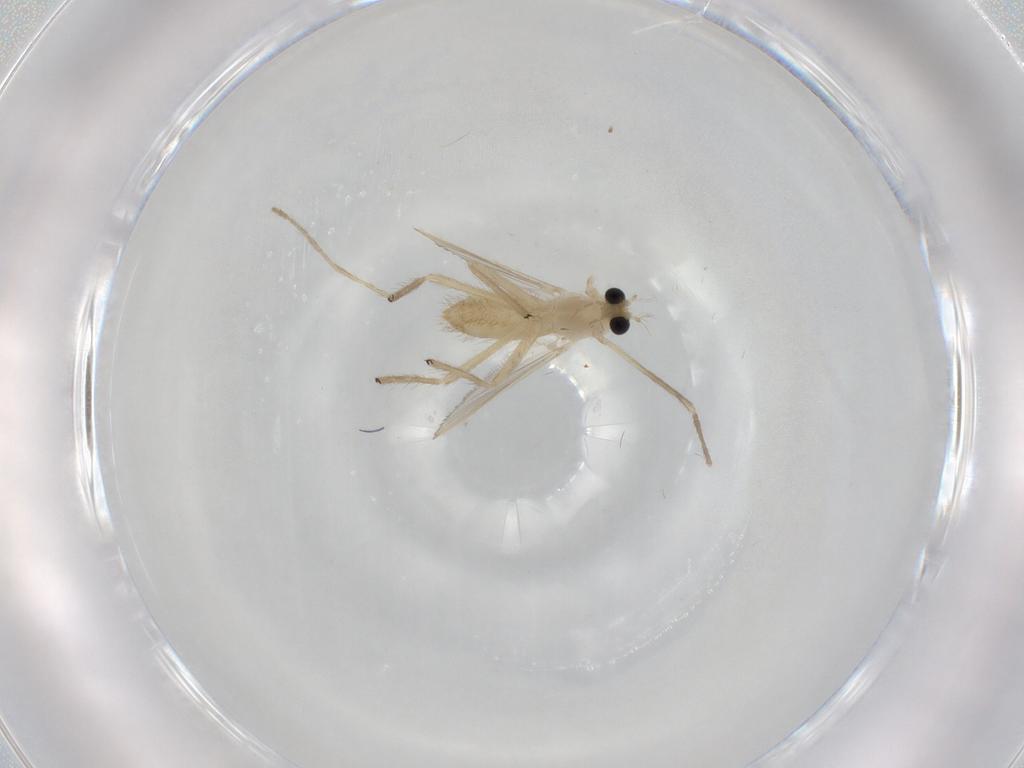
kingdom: Animalia
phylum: Arthropoda
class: Insecta
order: Diptera
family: Chironomidae
